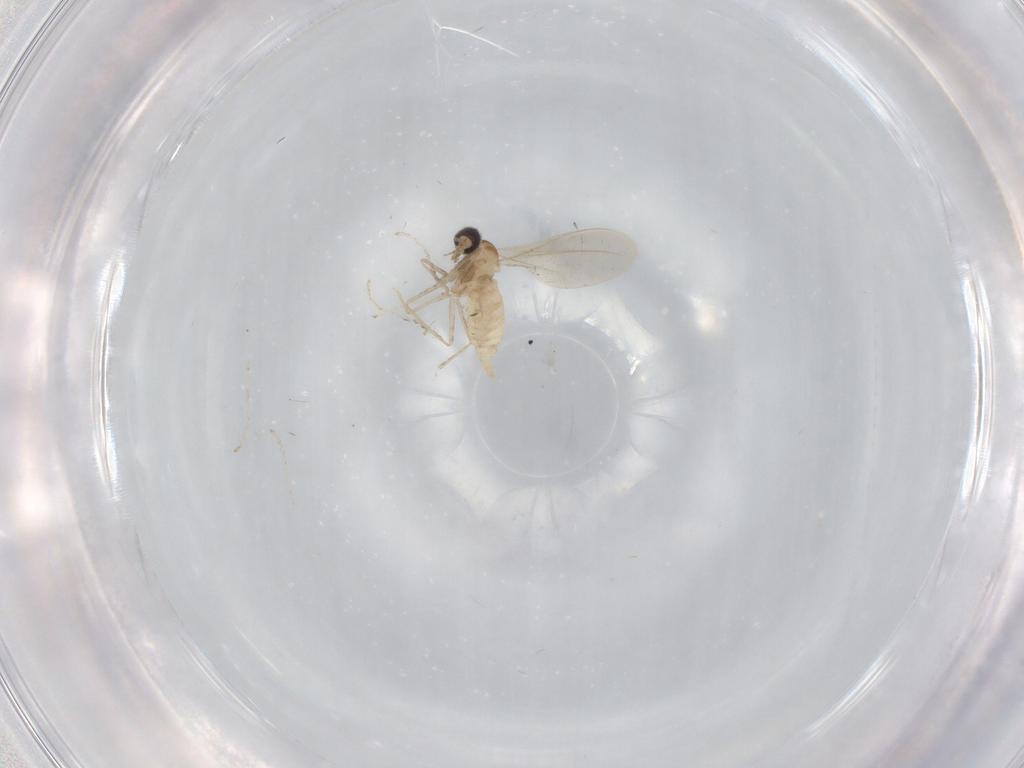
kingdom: Animalia
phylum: Arthropoda
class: Insecta
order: Diptera
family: Cecidomyiidae
